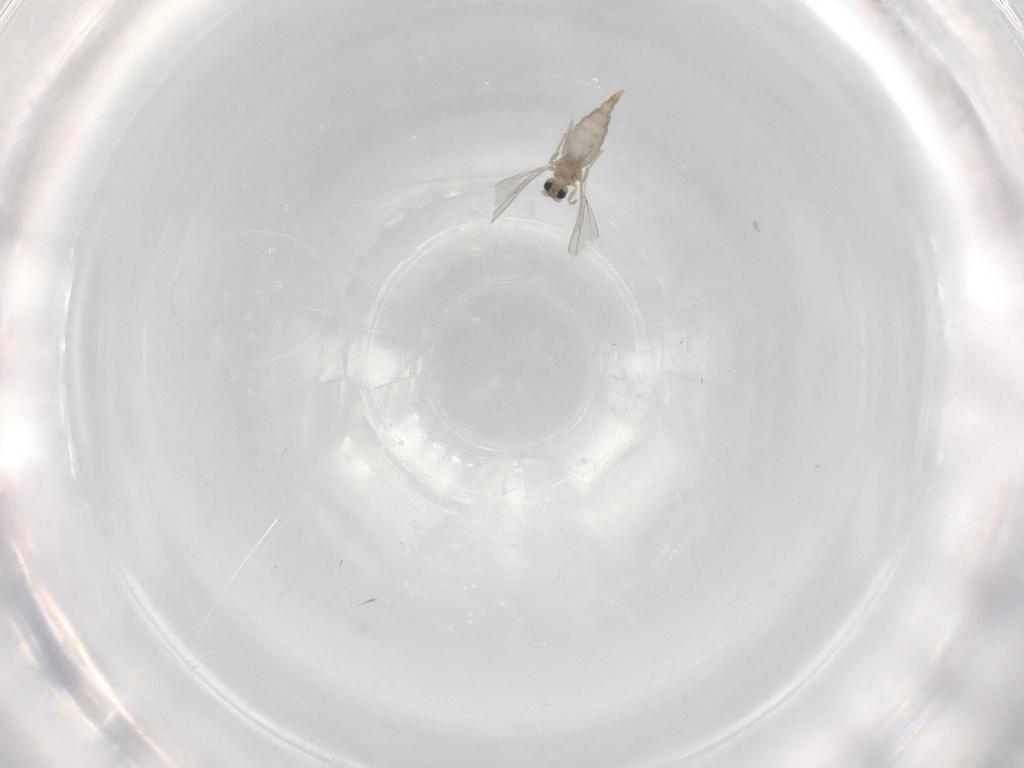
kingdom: Animalia
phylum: Arthropoda
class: Insecta
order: Diptera
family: Cecidomyiidae
